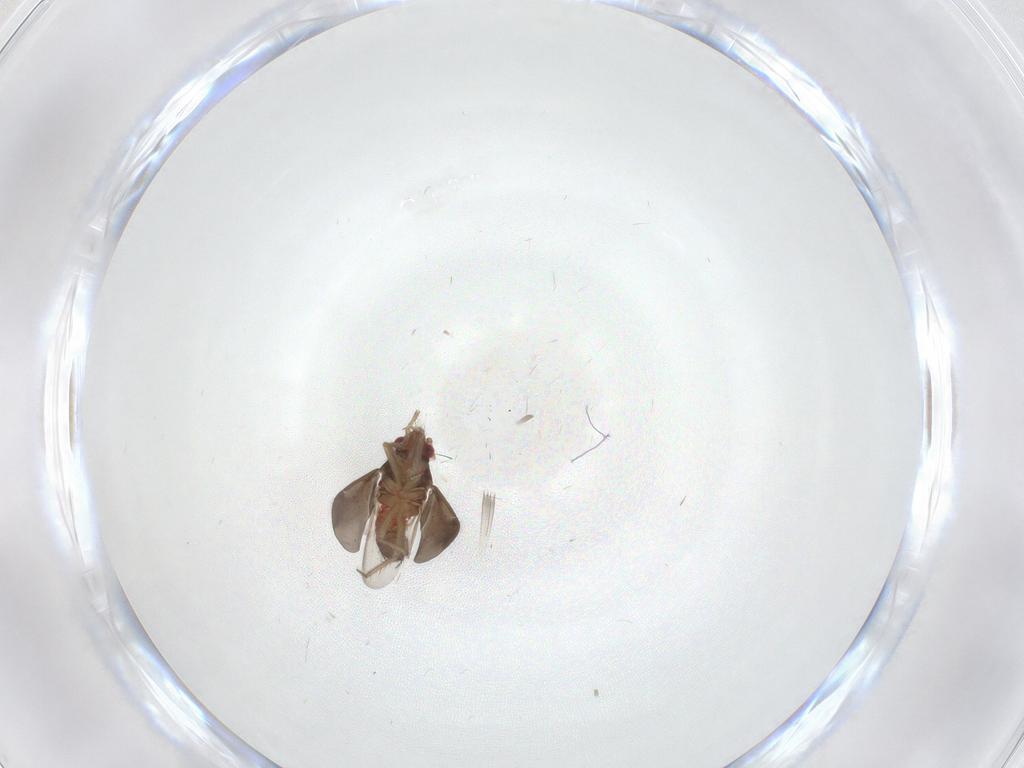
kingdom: Animalia
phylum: Arthropoda
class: Insecta
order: Hemiptera
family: Ceratocombidae
